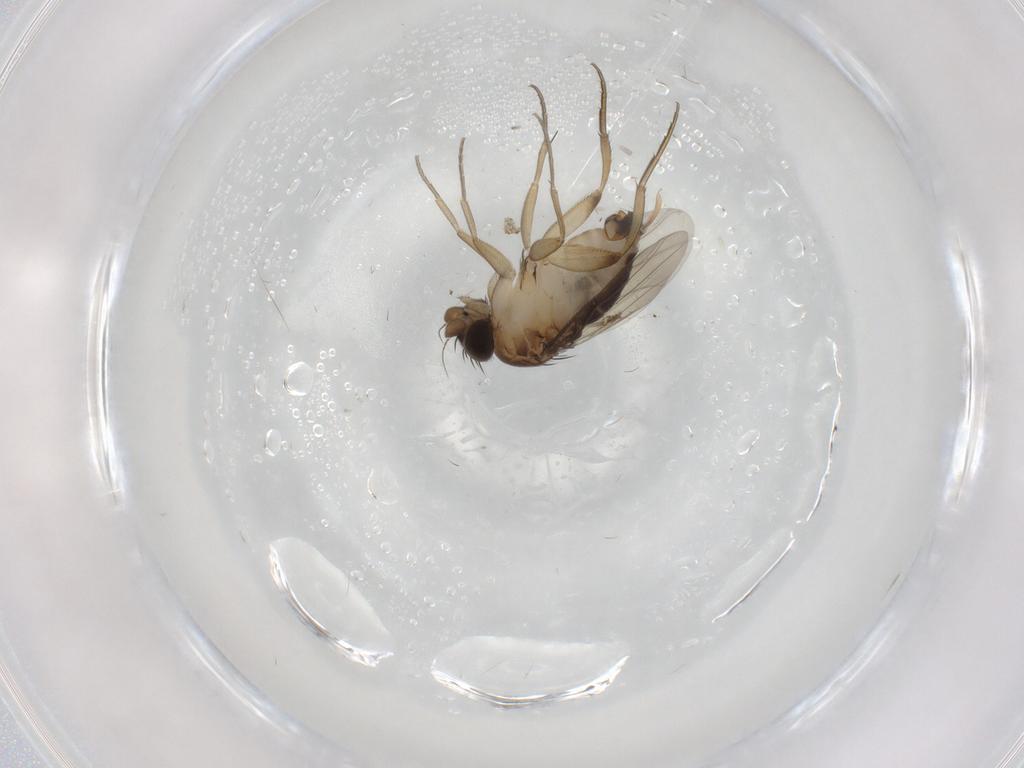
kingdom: Animalia
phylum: Arthropoda
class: Insecta
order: Diptera
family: Phoridae
